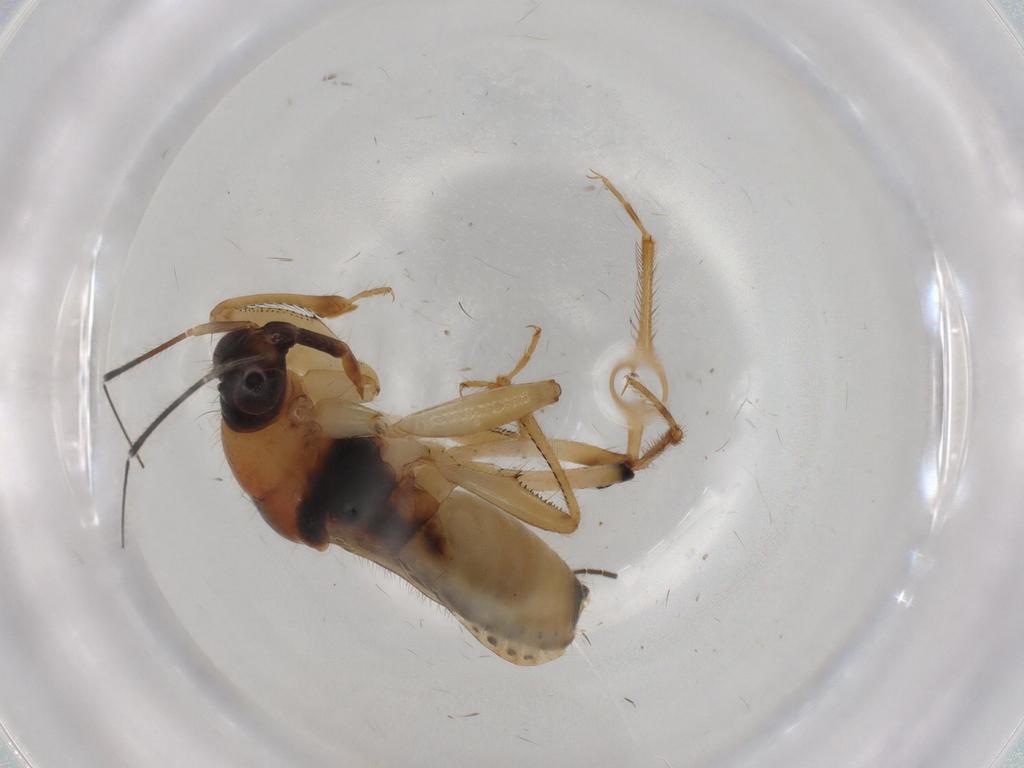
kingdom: Animalia
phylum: Arthropoda
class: Insecta
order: Hemiptera
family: Nabidae
